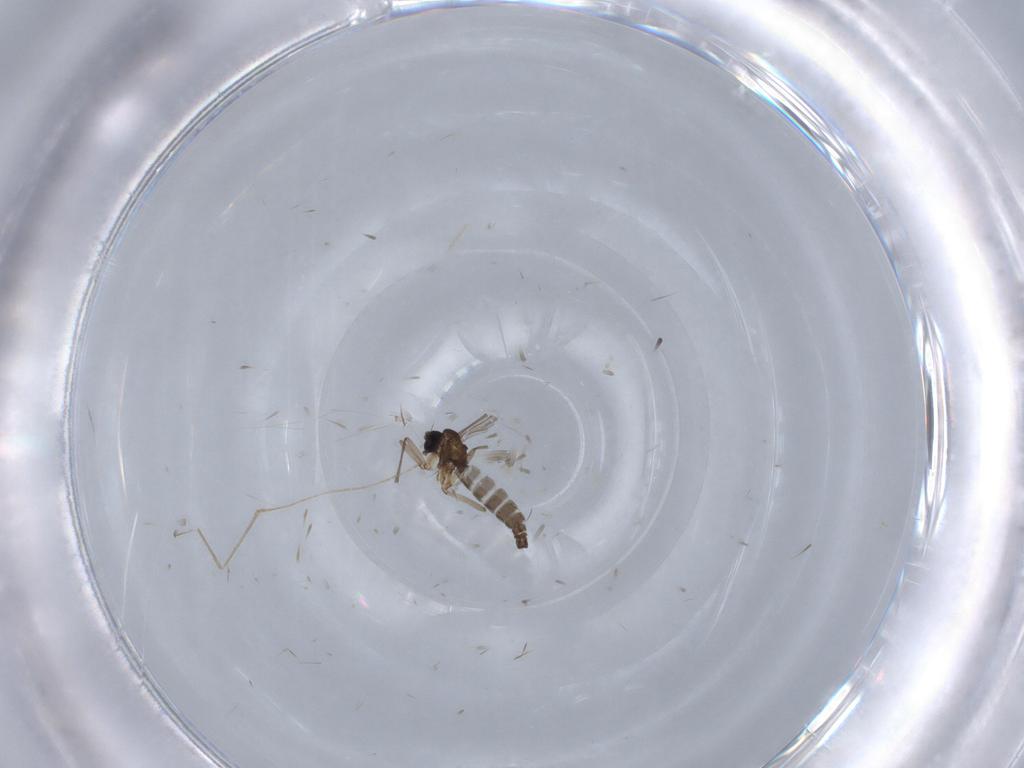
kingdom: Animalia
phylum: Arthropoda
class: Insecta
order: Diptera
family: Sciaridae
